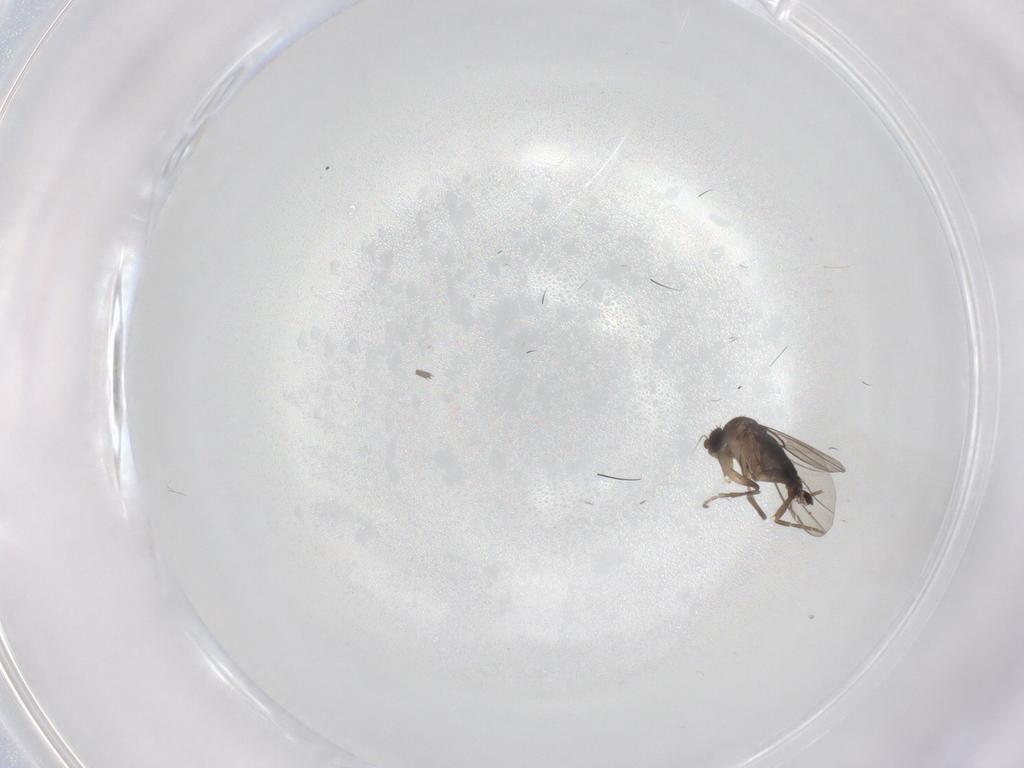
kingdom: Animalia
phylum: Arthropoda
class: Insecta
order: Diptera
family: Phoridae
